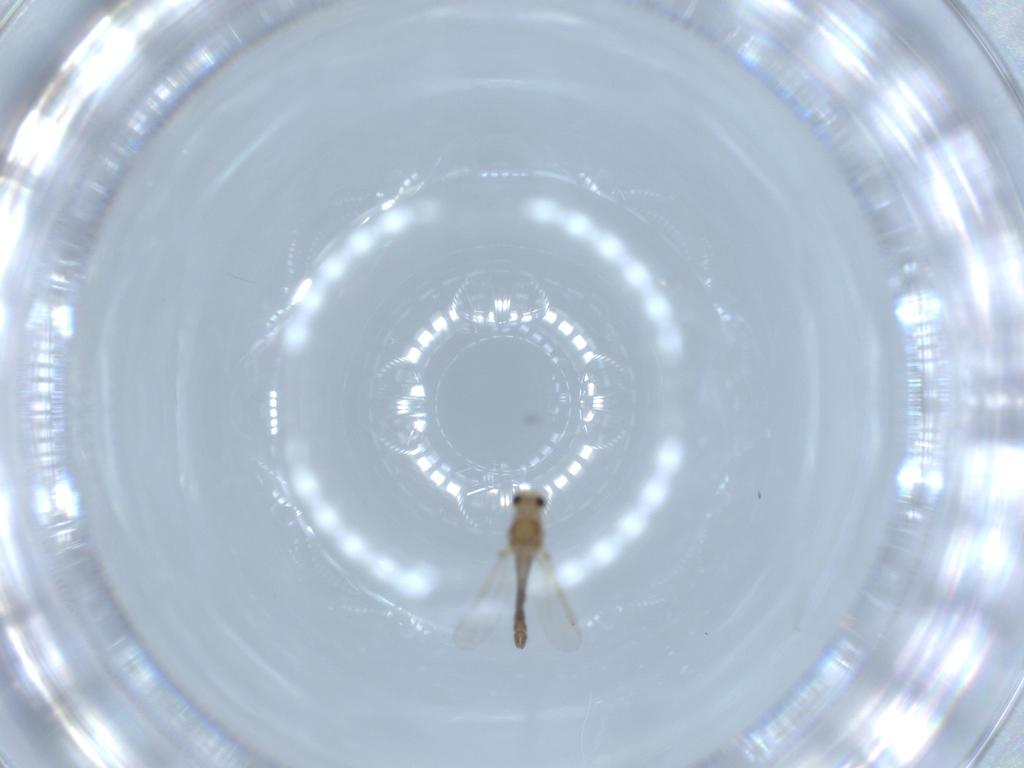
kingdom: Animalia
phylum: Arthropoda
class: Insecta
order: Diptera
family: Chironomidae
